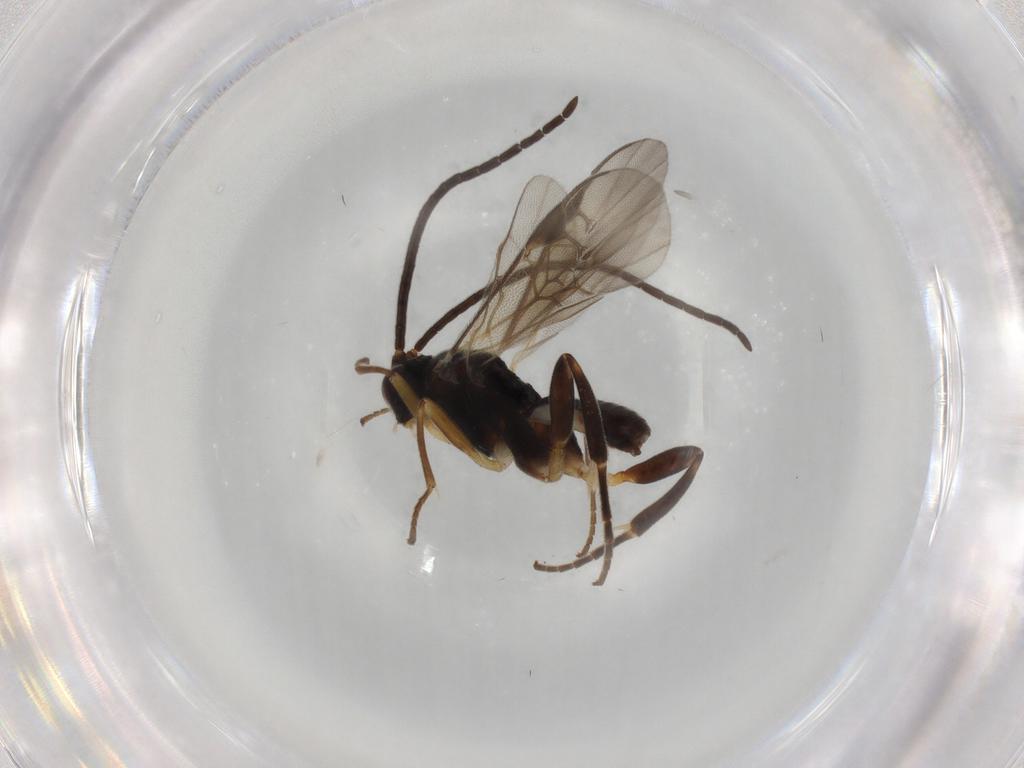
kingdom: Animalia
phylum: Arthropoda
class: Insecta
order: Hymenoptera
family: Braconidae
